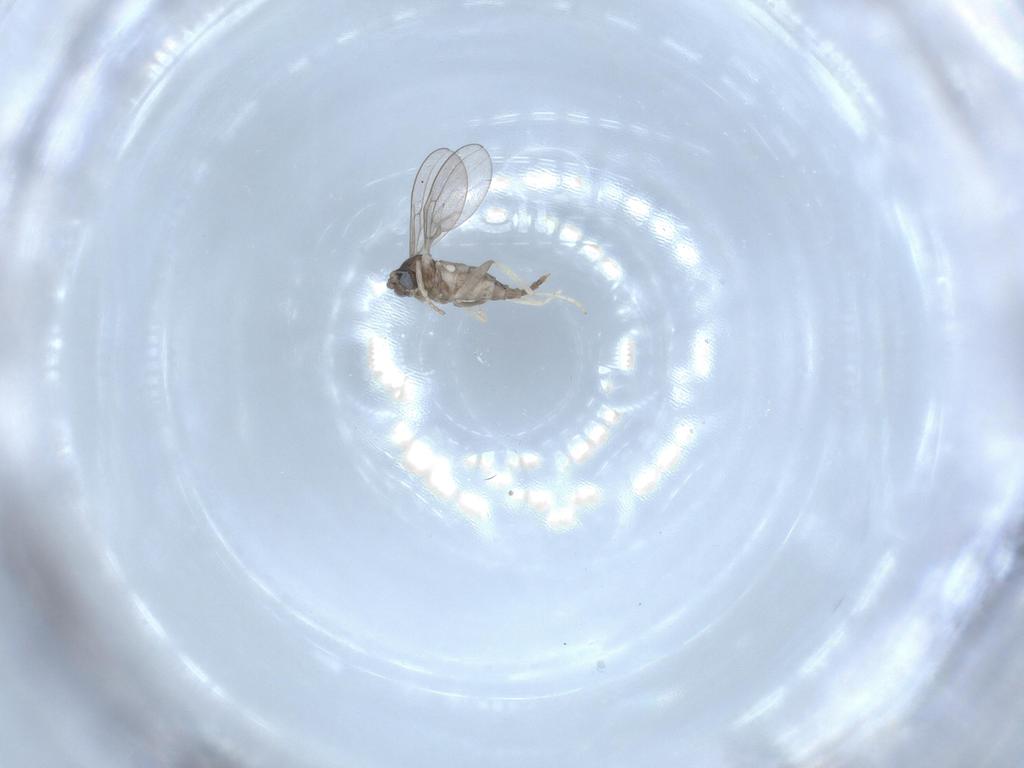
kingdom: Animalia
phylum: Arthropoda
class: Insecta
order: Diptera
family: Cecidomyiidae
